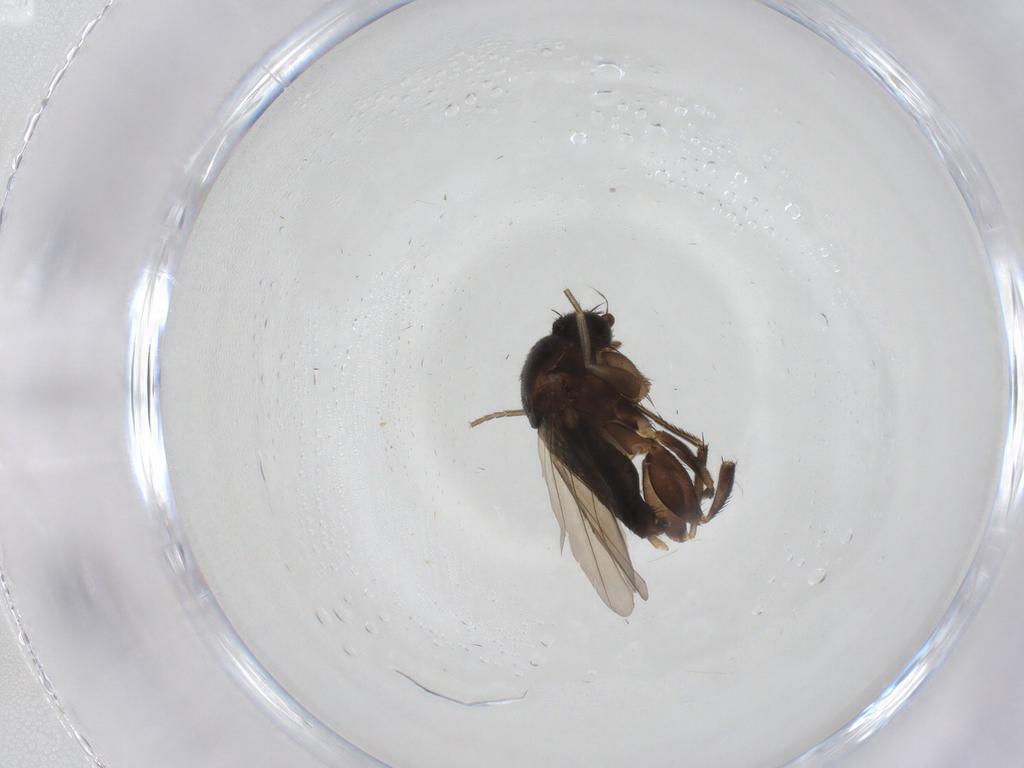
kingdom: Animalia
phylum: Arthropoda
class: Insecta
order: Diptera
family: Phoridae
